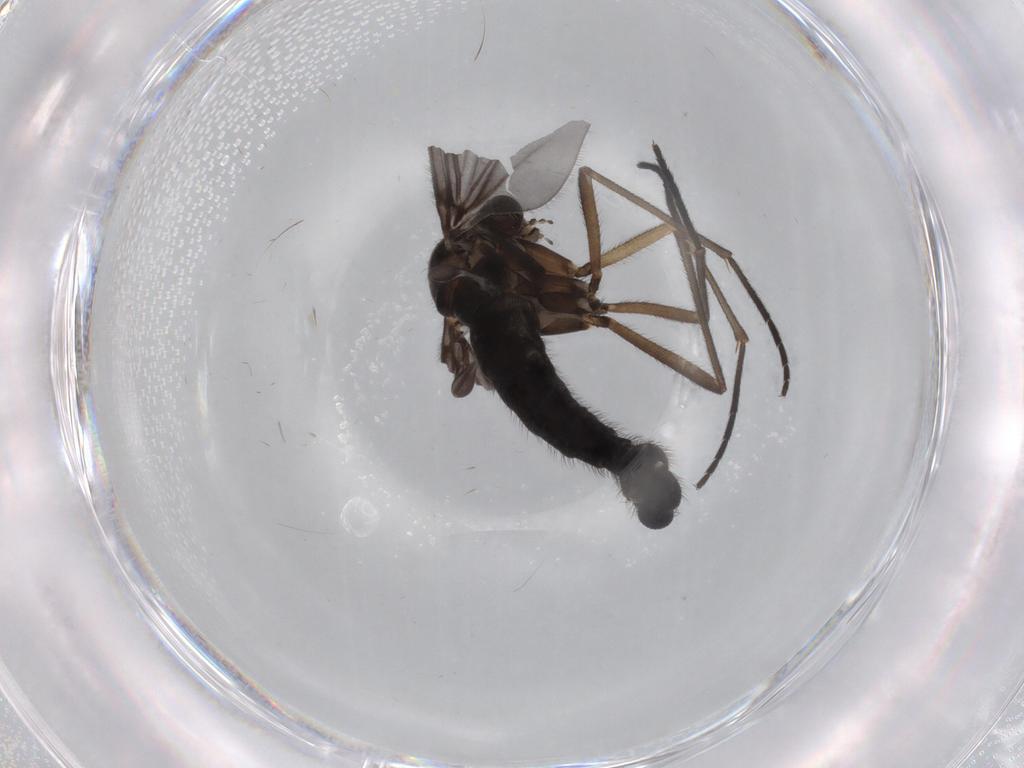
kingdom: Animalia
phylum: Arthropoda
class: Insecta
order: Diptera
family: Sciaridae
